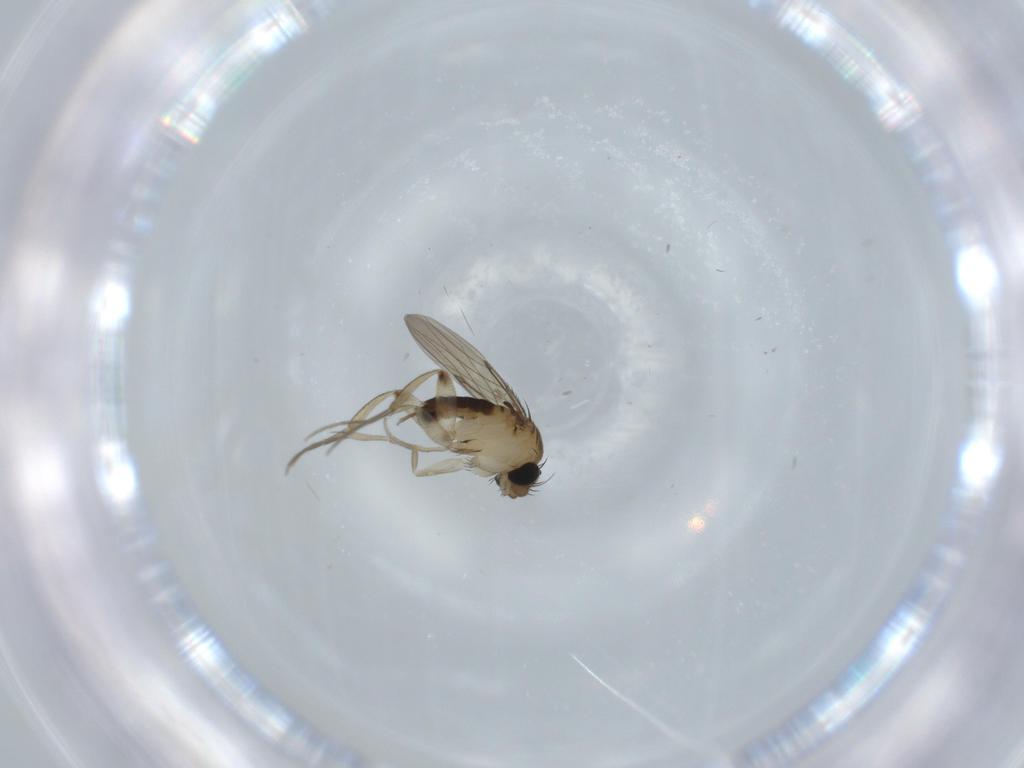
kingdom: Animalia
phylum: Arthropoda
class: Insecta
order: Diptera
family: Phoridae
